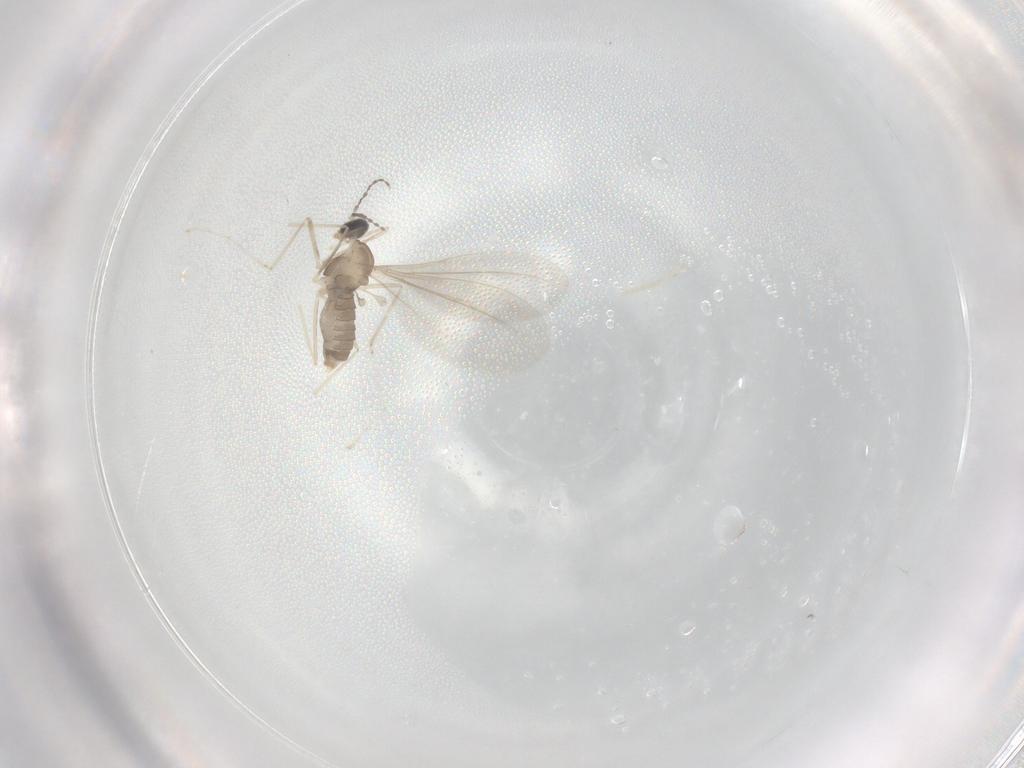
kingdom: Animalia
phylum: Arthropoda
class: Insecta
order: Diptera
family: Cecidomyiidae
